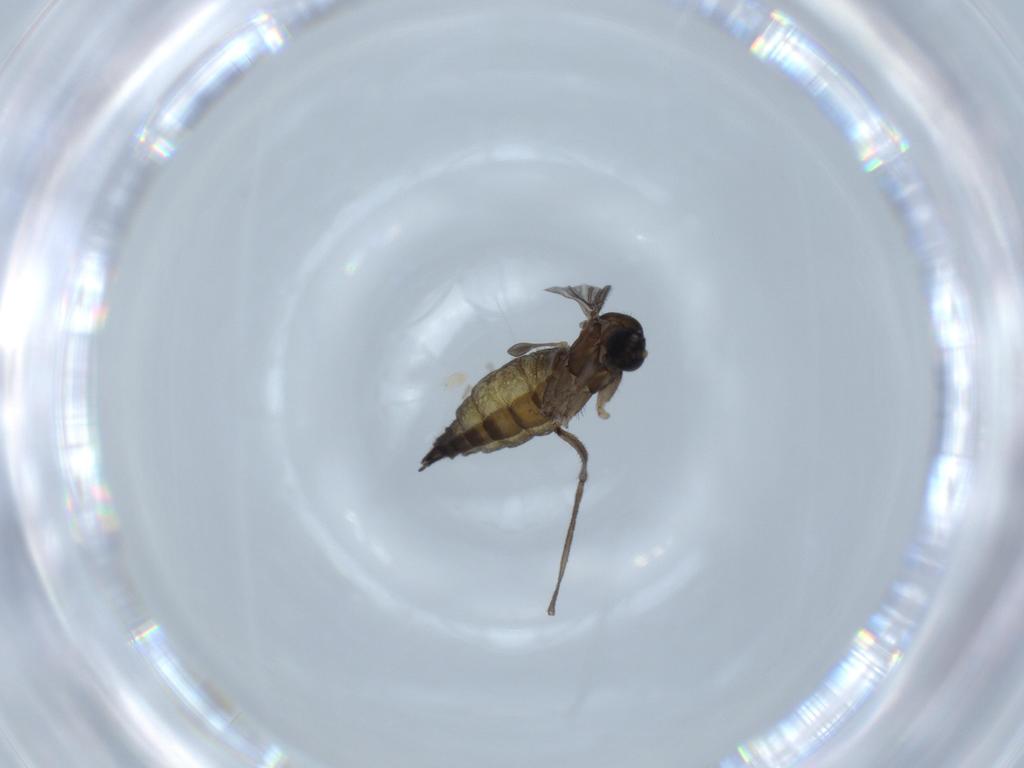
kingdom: Animalia
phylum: Arthropoda
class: Insecta
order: Diptera
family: Sciaridae
